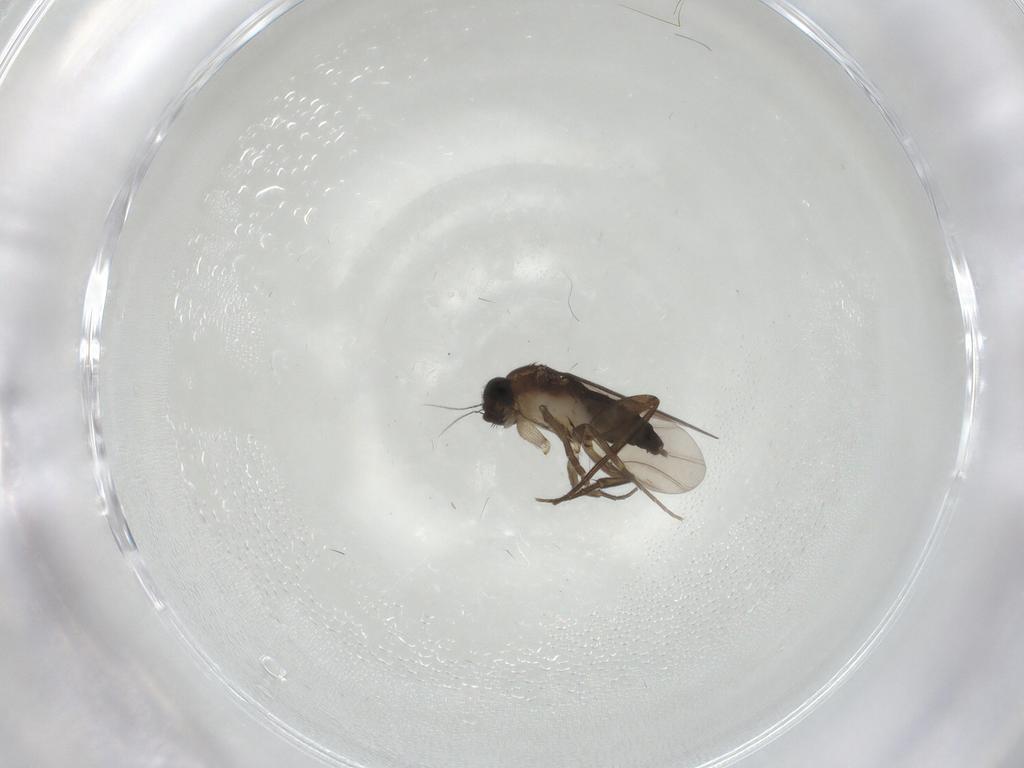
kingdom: Animalia
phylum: Arthropoda
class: Insecta
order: Diptera
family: Phoridae
